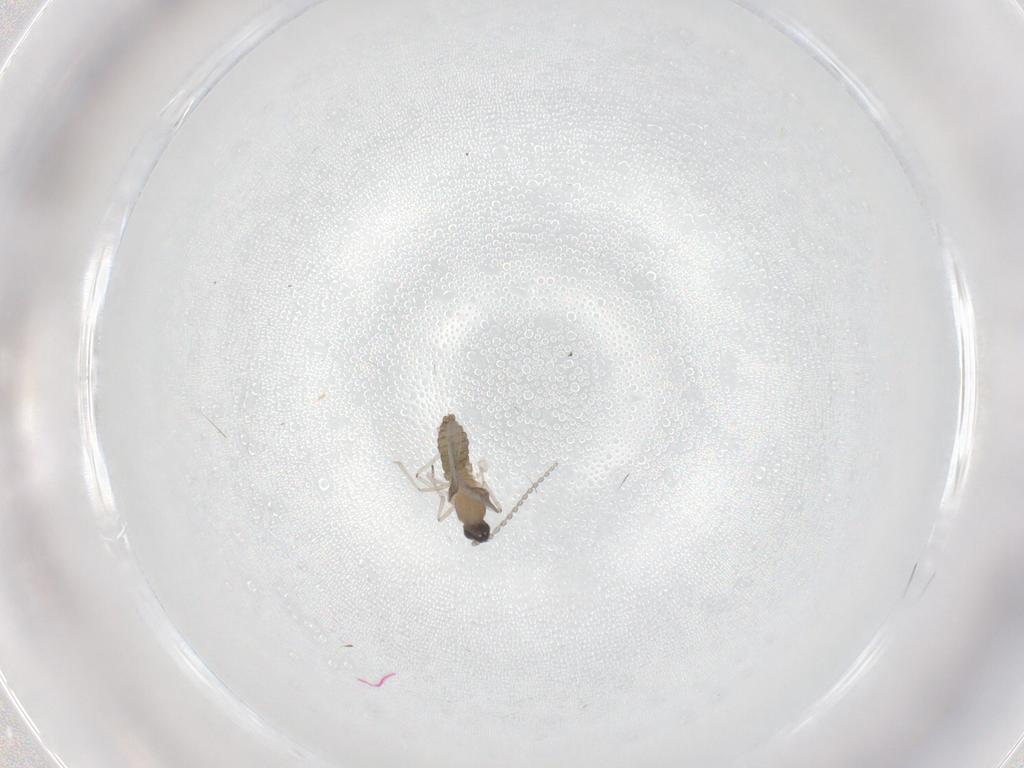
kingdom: Animalia
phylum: Arthropoda
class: Insecta
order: Diptera
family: Cecidomyiidae
